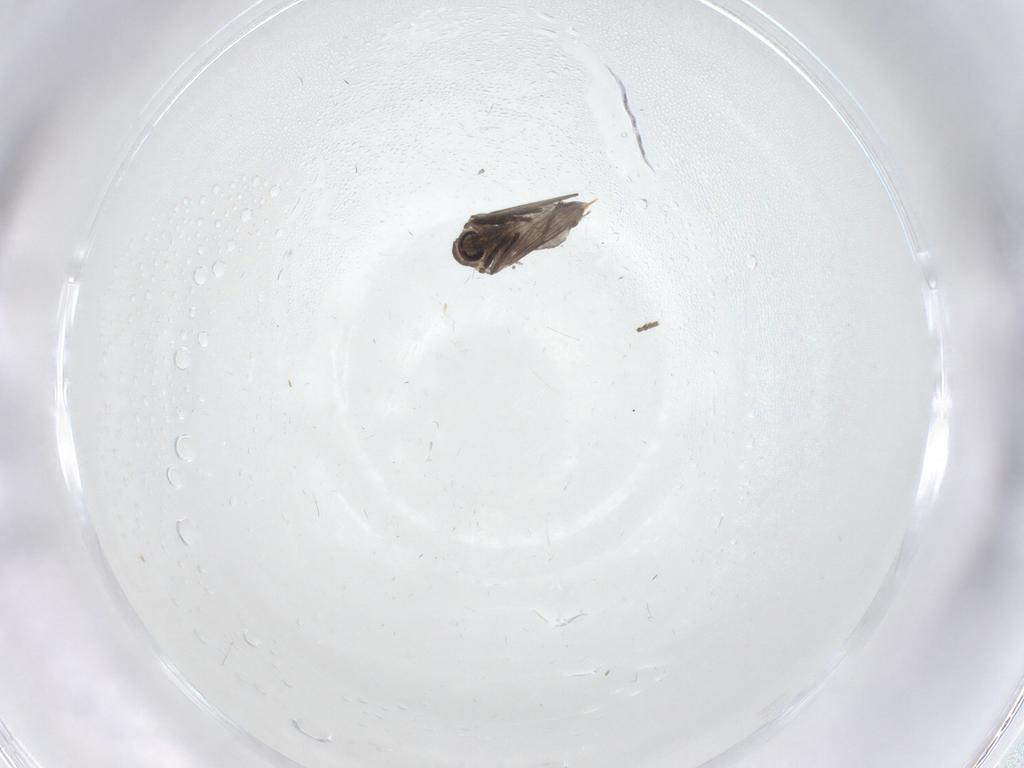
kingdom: Animalia
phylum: Arthropoda
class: Insecta
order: Diptera
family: Psychodidae
